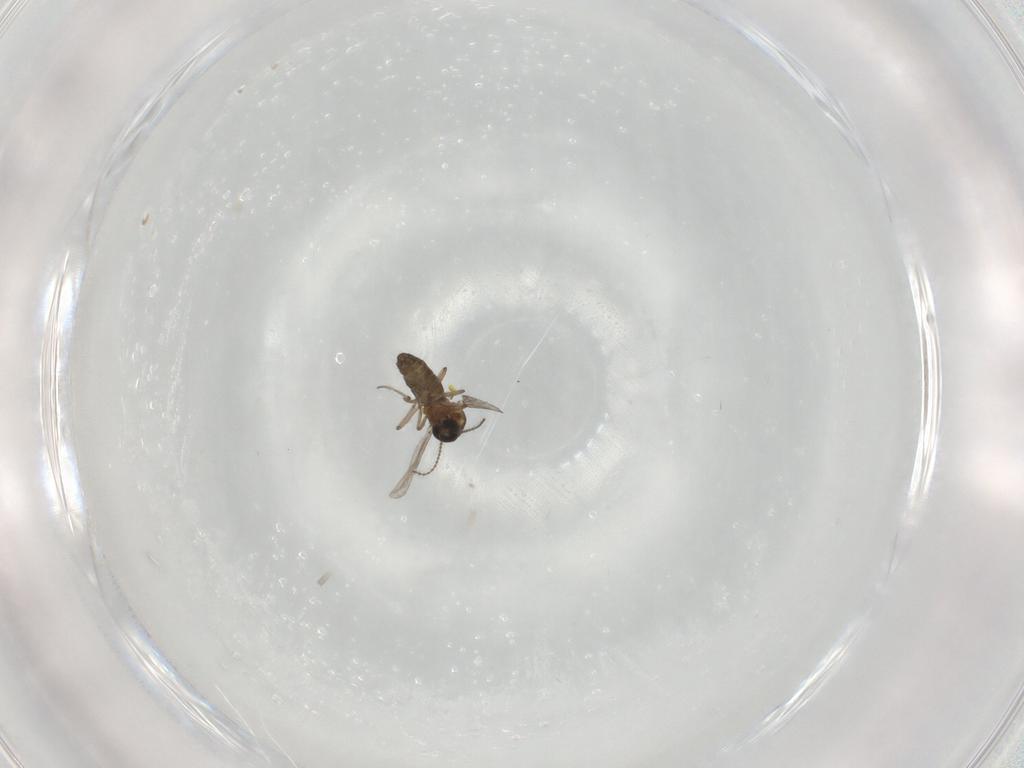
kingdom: Animalia
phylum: Arthropoda
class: Insecta
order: Diptera
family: Ceratopogonidae
